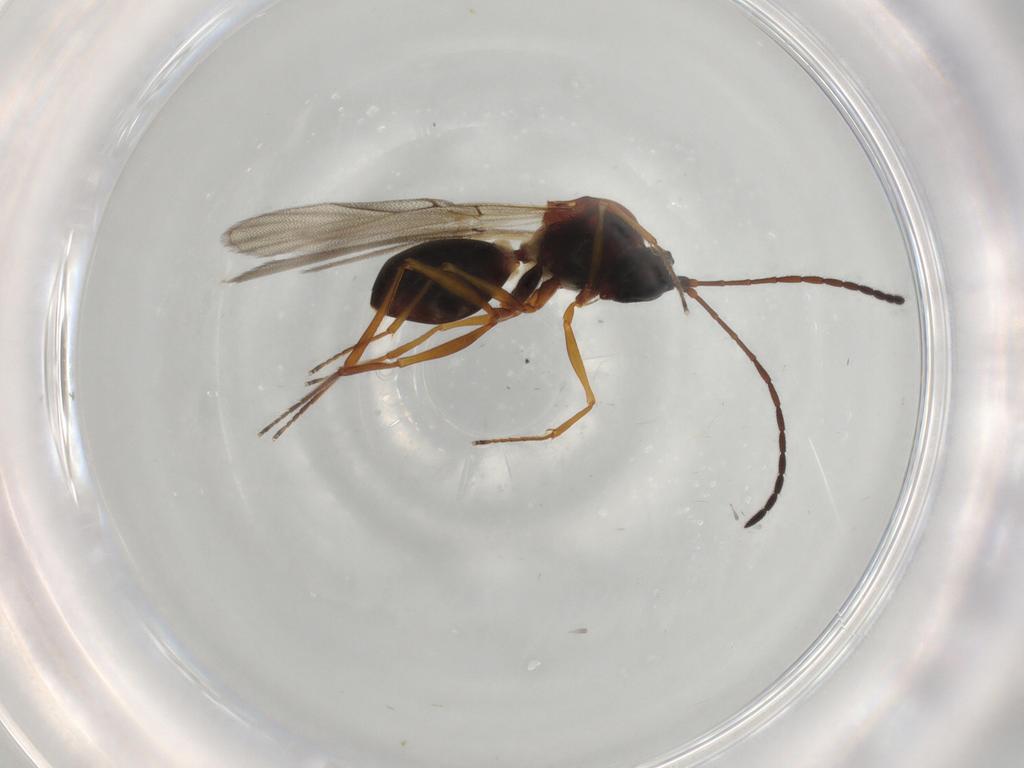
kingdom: Animalia
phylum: Arthropoda
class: Insecta
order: Hymenoptera
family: Figitidae
